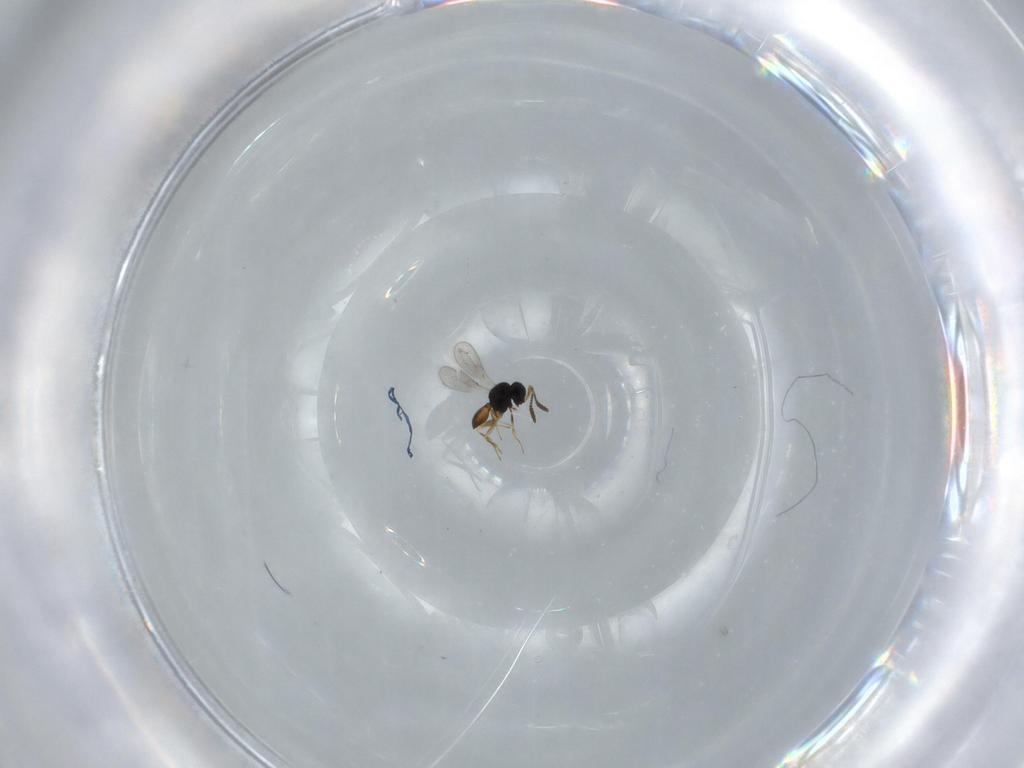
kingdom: Animalia
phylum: Arthropoda
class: Insecta
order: Hymenoptera
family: Scelionidae
